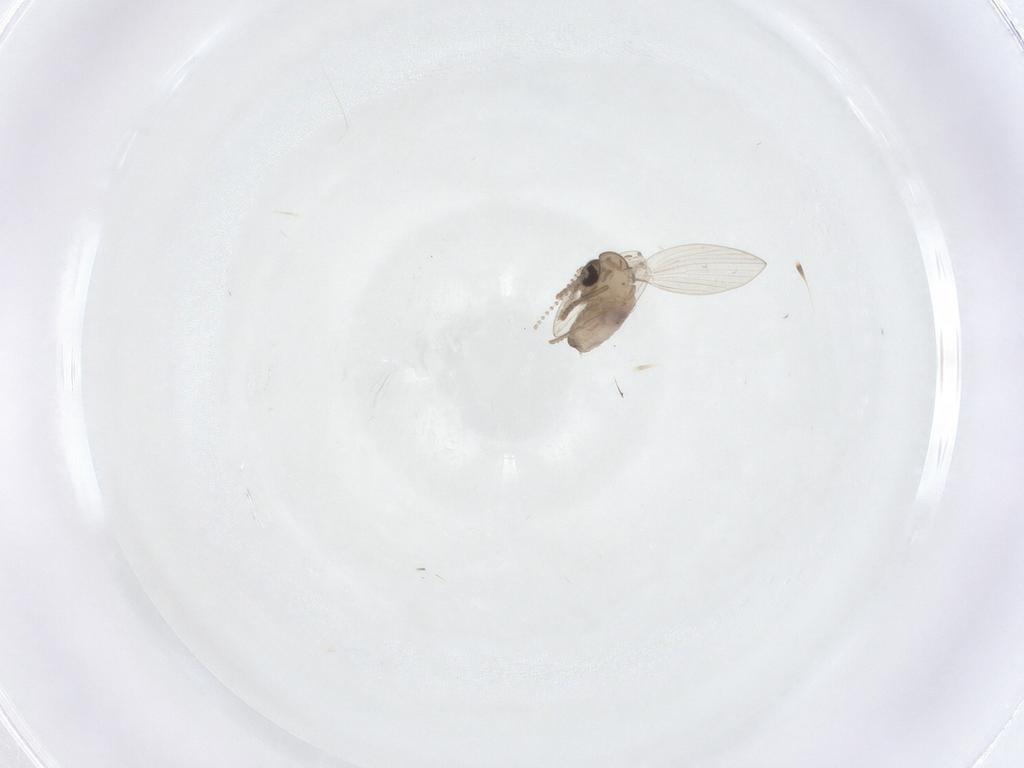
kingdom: Animalia
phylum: Arthropoda
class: Insecta
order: Diptera
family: Psychodidae
